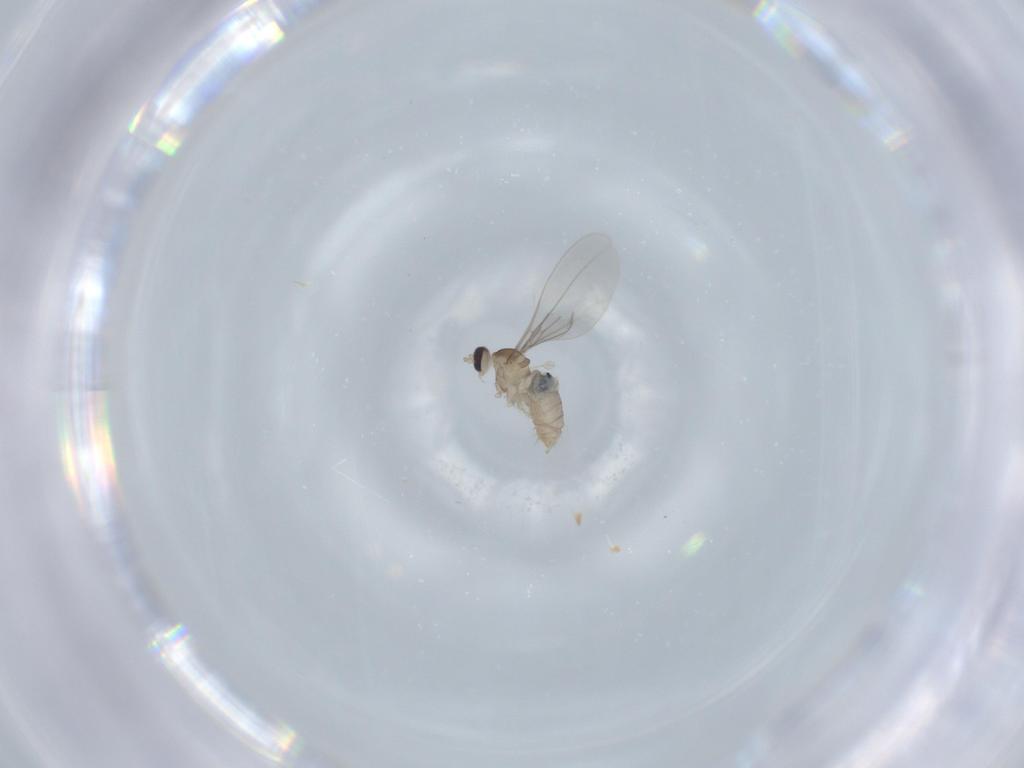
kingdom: Animalia
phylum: Arthropoda
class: Insecta
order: Diptera
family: Cecidomyiidae
